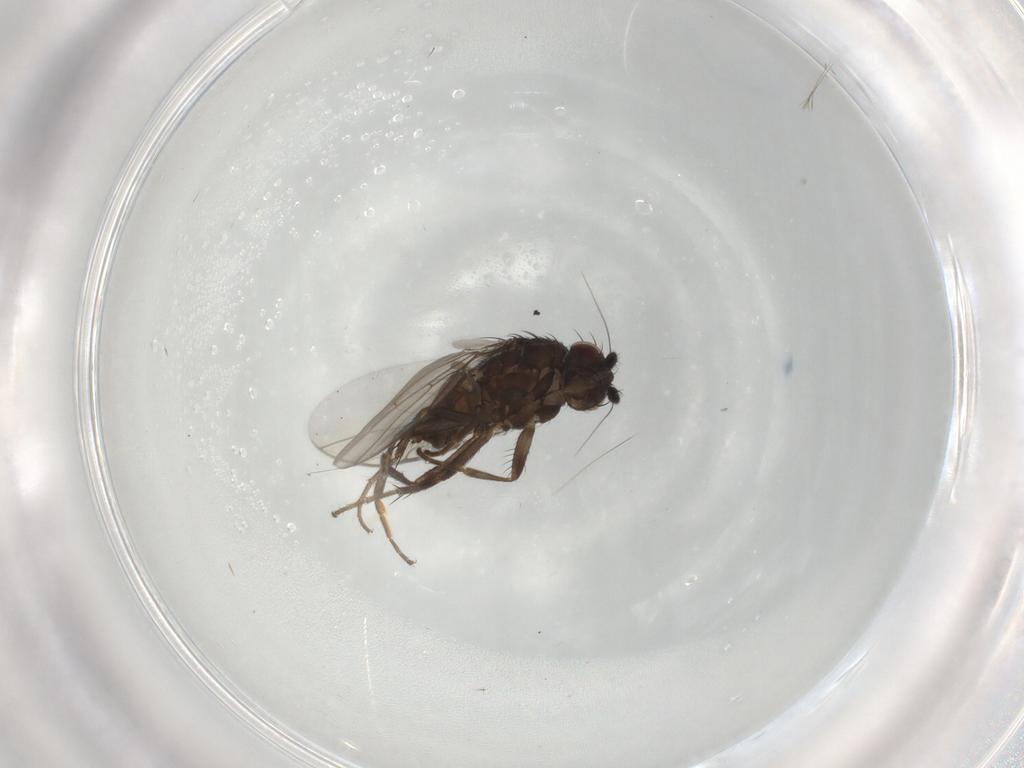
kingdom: Animalia
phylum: Arthropoda
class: Insecta
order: Diptera
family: Sphaeroceridae
